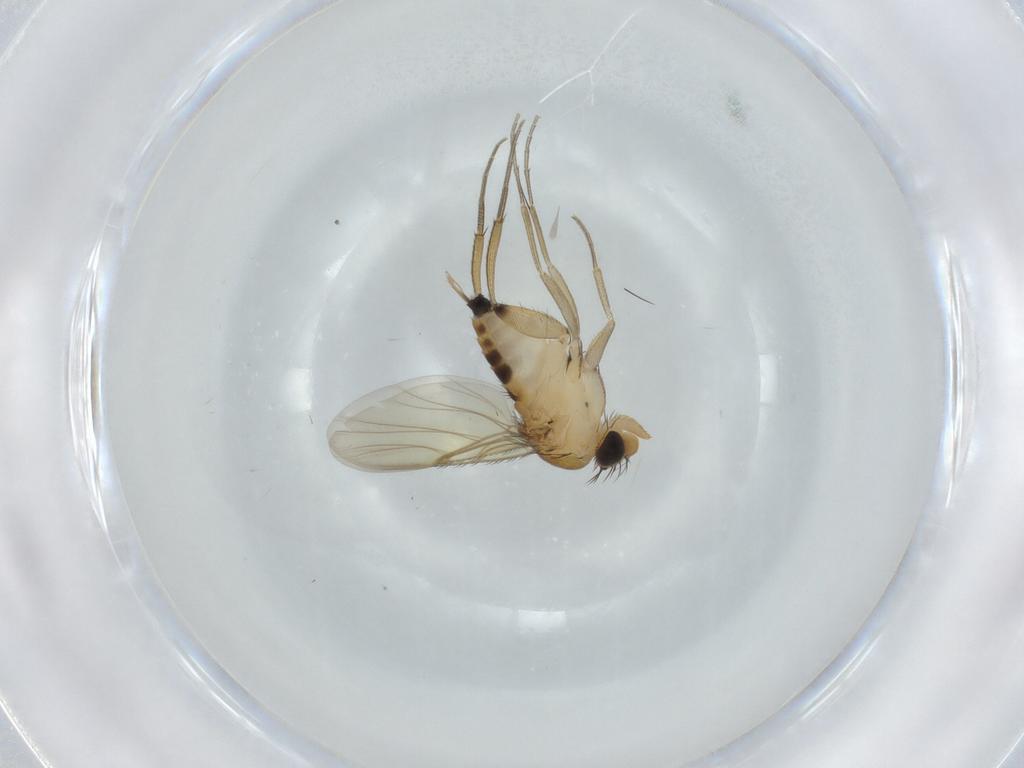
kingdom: Animalia
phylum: Arthropoda
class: Insecta
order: Diptera
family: Phoridae
